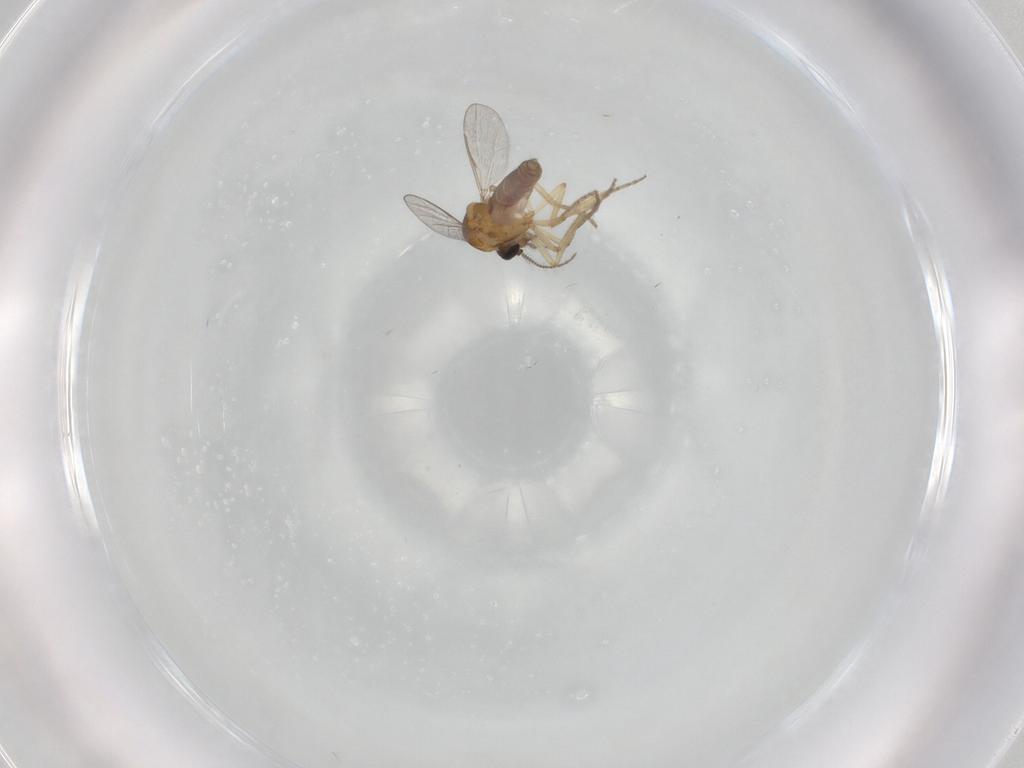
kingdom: Animalia
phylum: Arthropoda
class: Insecta
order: Diptera
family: Ceratopogonidae
